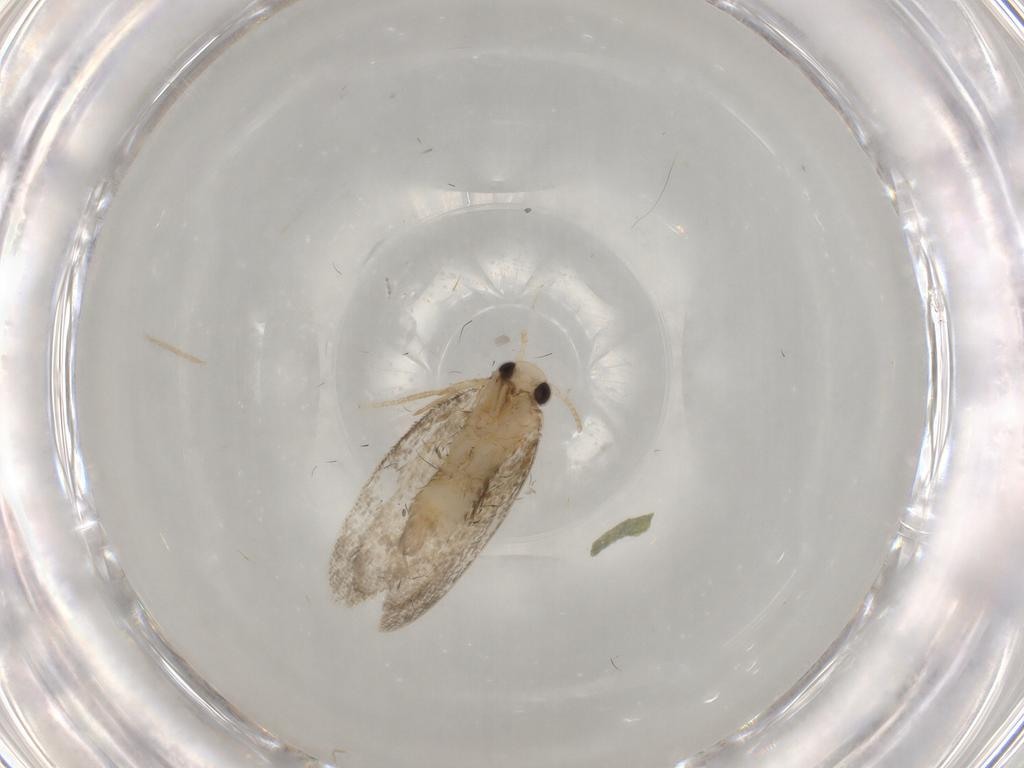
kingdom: Animalia
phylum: Arthropoda
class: Insecta
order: Lepidoptera
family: Psychidae
